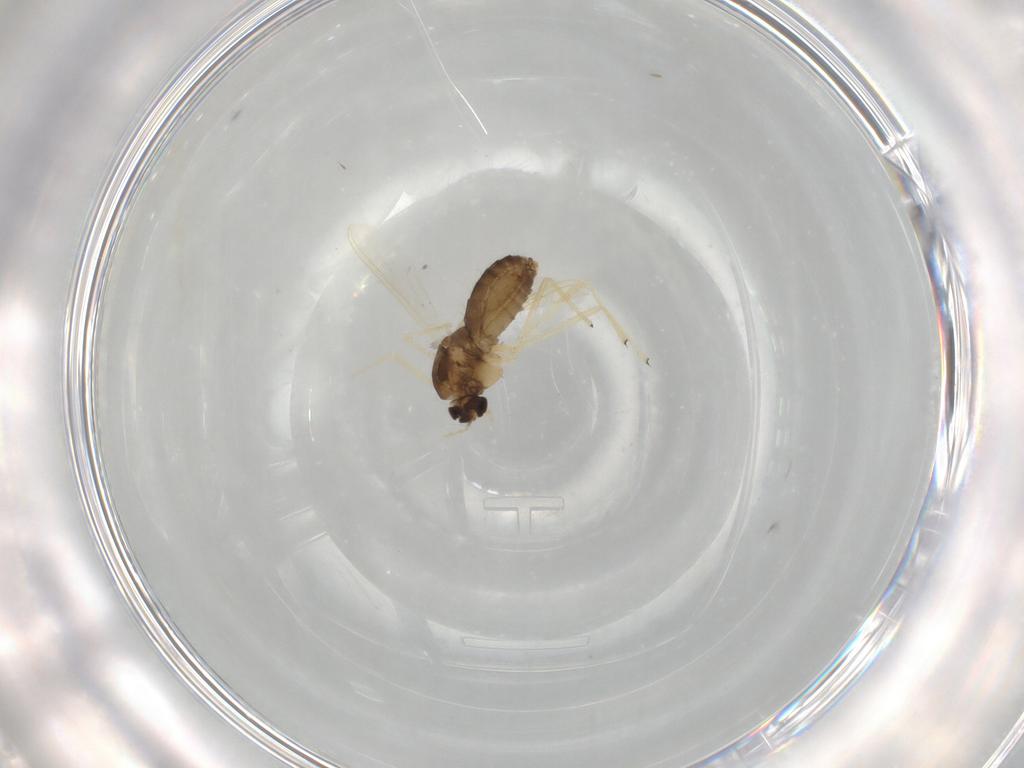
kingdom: Animalia
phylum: Arthropoda
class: Insecta
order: Diptera
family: Chironomidae
